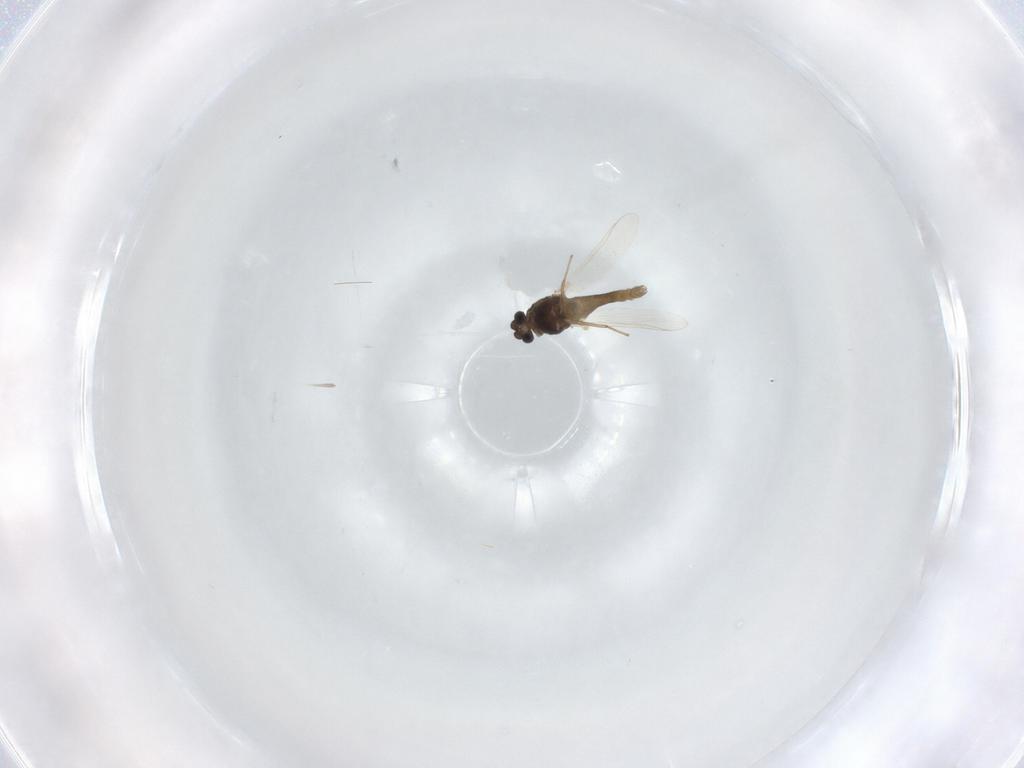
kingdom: Animalia
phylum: Arthropoda
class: Insecta
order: Diptera
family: Chironomidae
